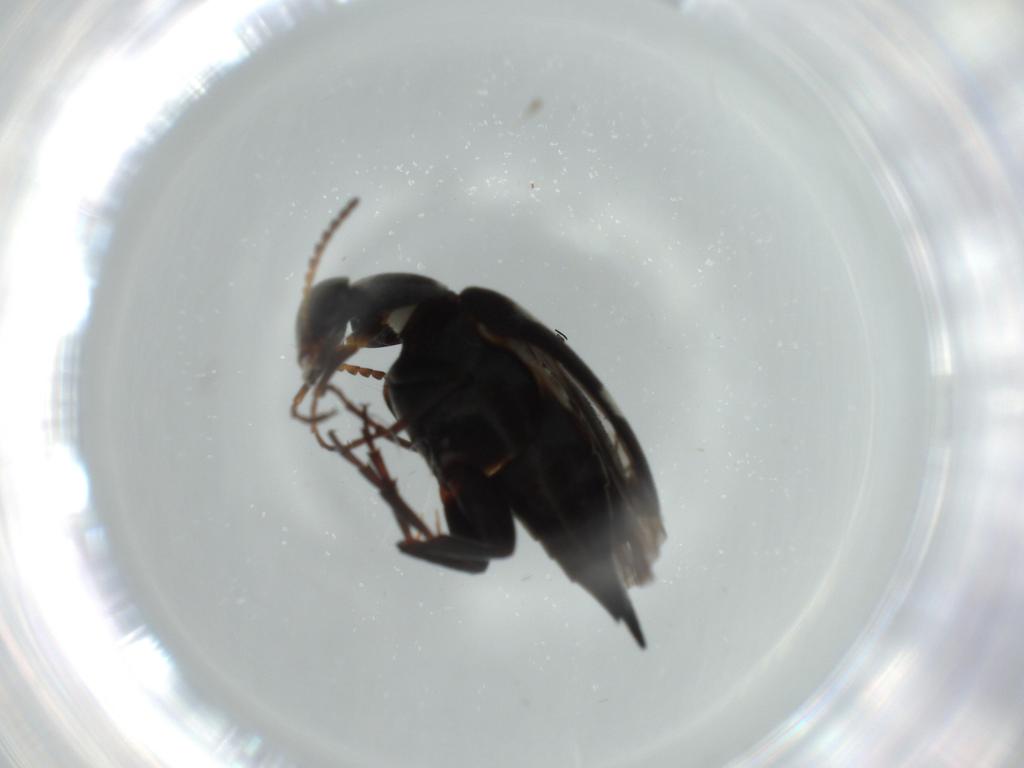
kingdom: Animalia
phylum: Arthropoda
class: Insecta
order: Coleoptera
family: Mordellidae
